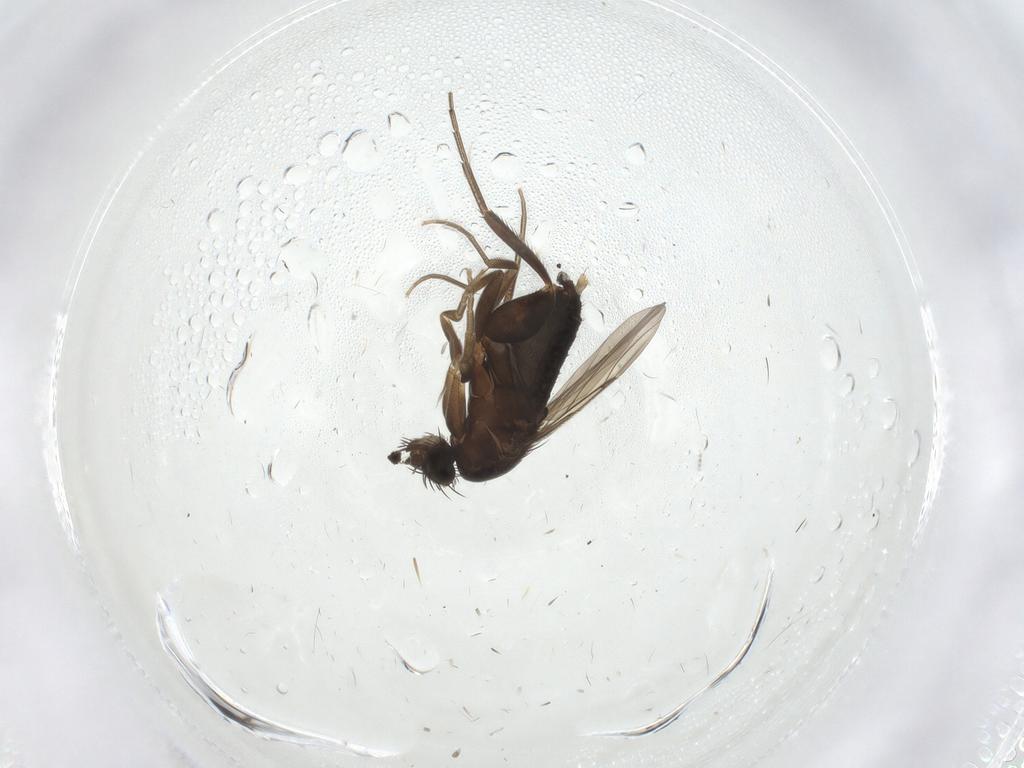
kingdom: Animalia
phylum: Arthropoda
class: Insecta
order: Diptera
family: Phoridae
